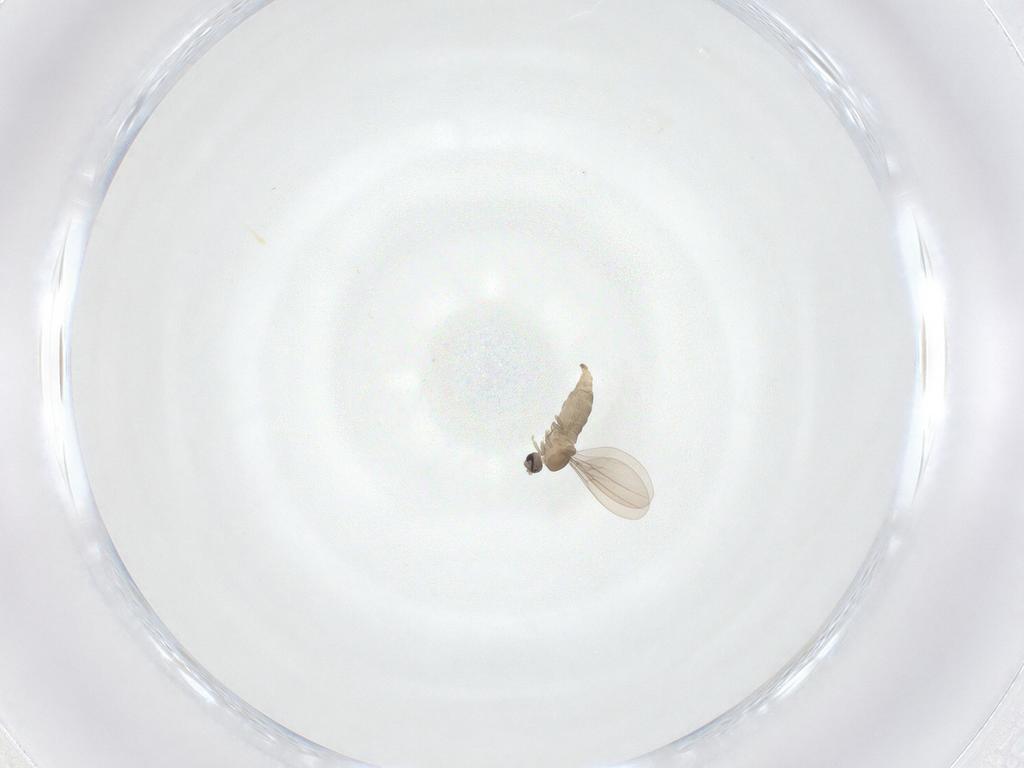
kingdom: Animalia
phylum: Arthropoda
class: Insecta
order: Diptera
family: Cecidomyiidae
